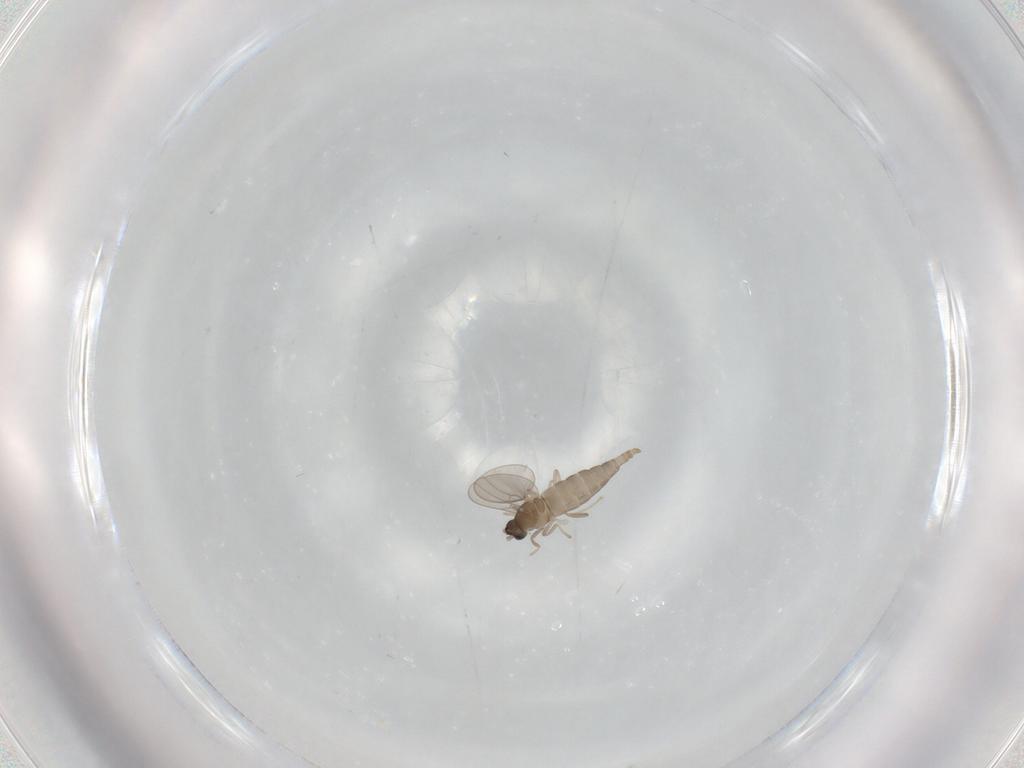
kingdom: Animalia
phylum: Arthropoda
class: Insecta
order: Diptera
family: Cecidomyiidae
